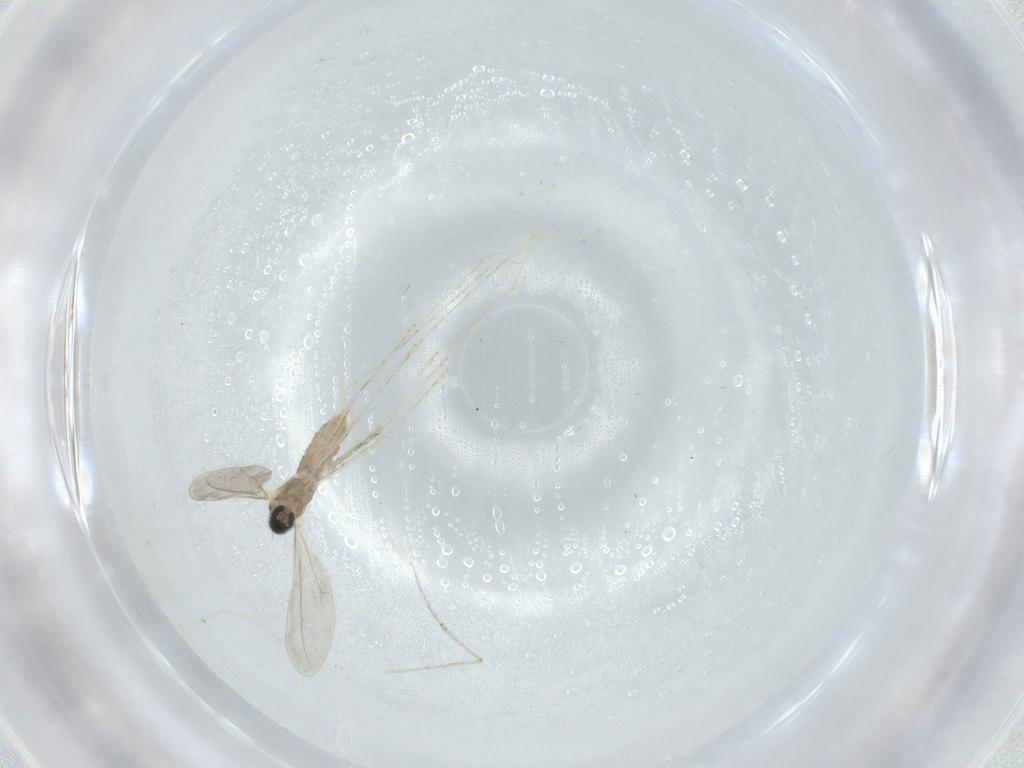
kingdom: Animalia
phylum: Arthropoda
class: Insecta
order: Diptera
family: Cecidomyiidae
